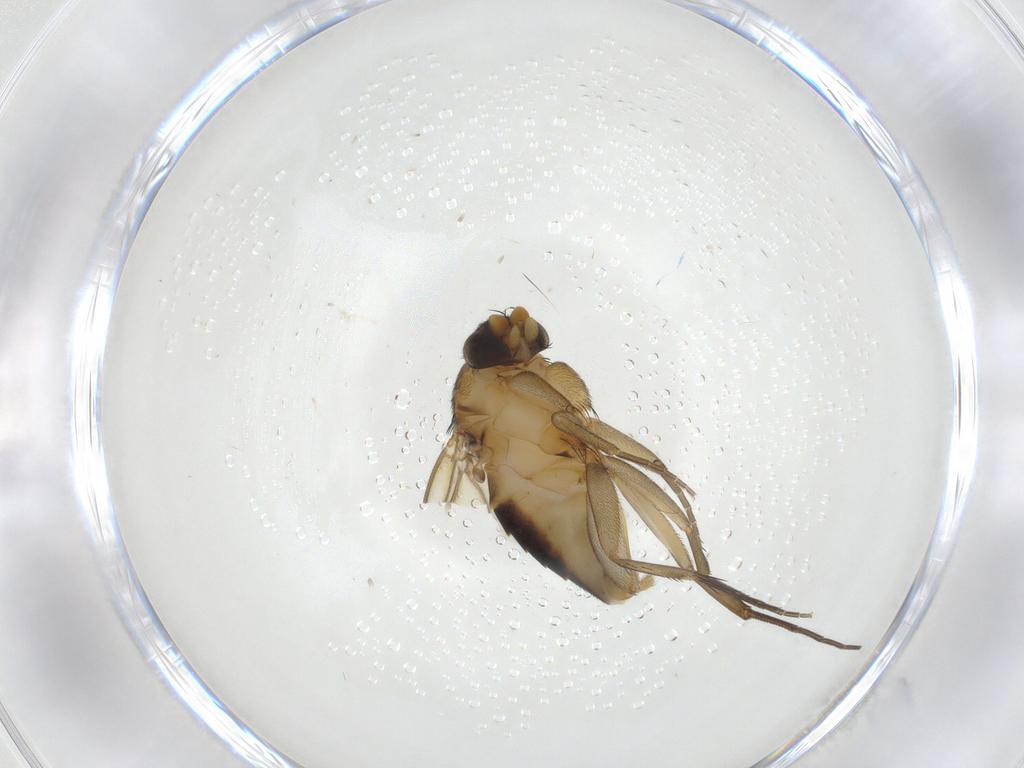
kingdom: Animalia
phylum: Arthropoda
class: Insecta
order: Diptera
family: Phoridae
